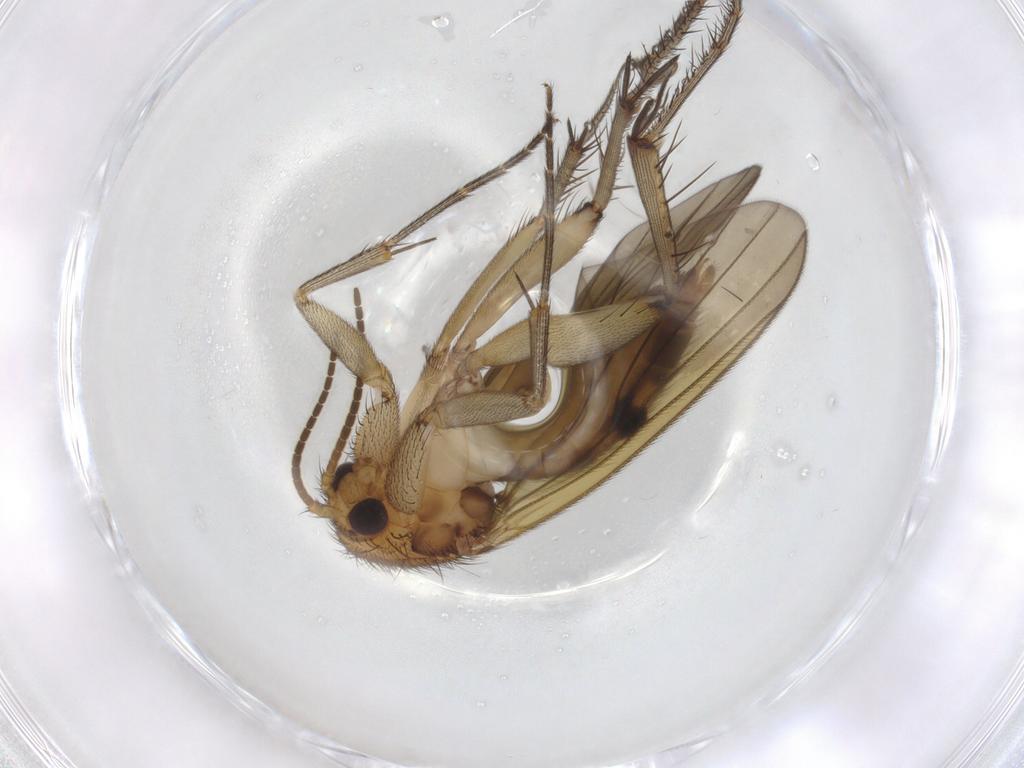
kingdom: Animalia
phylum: Arthropoda
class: Insecta
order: Diptera
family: Mycetophilidae
